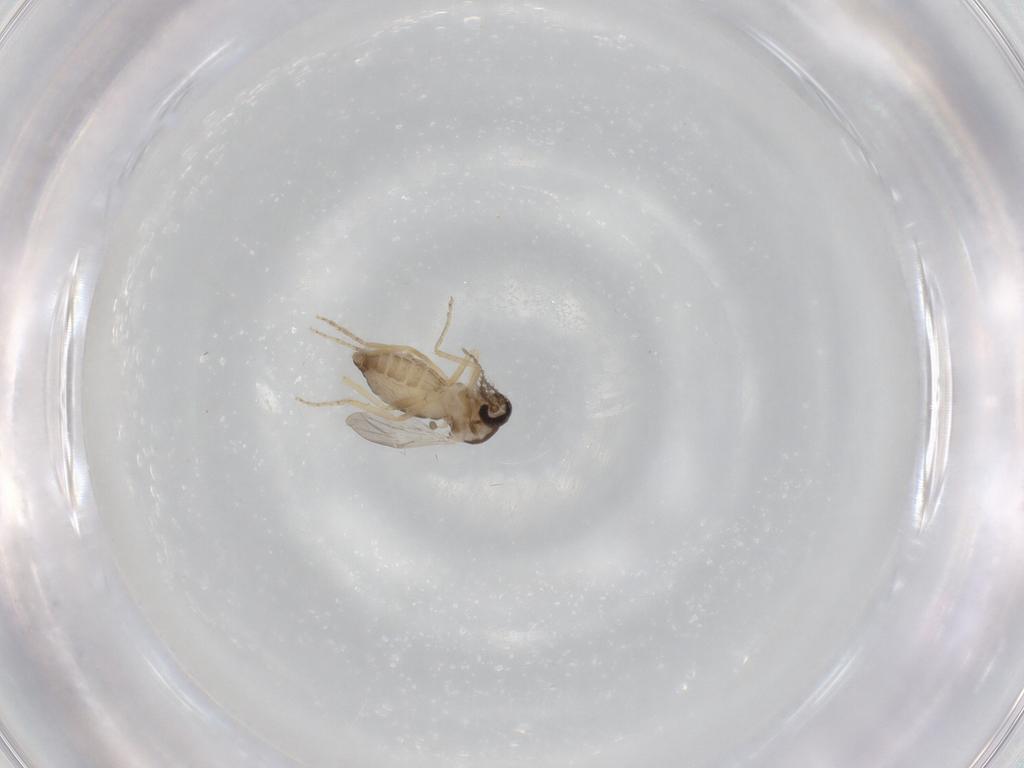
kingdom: Animalia
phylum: Arthropoda
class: Insecta
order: Diptera
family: Ceratopogonidae
